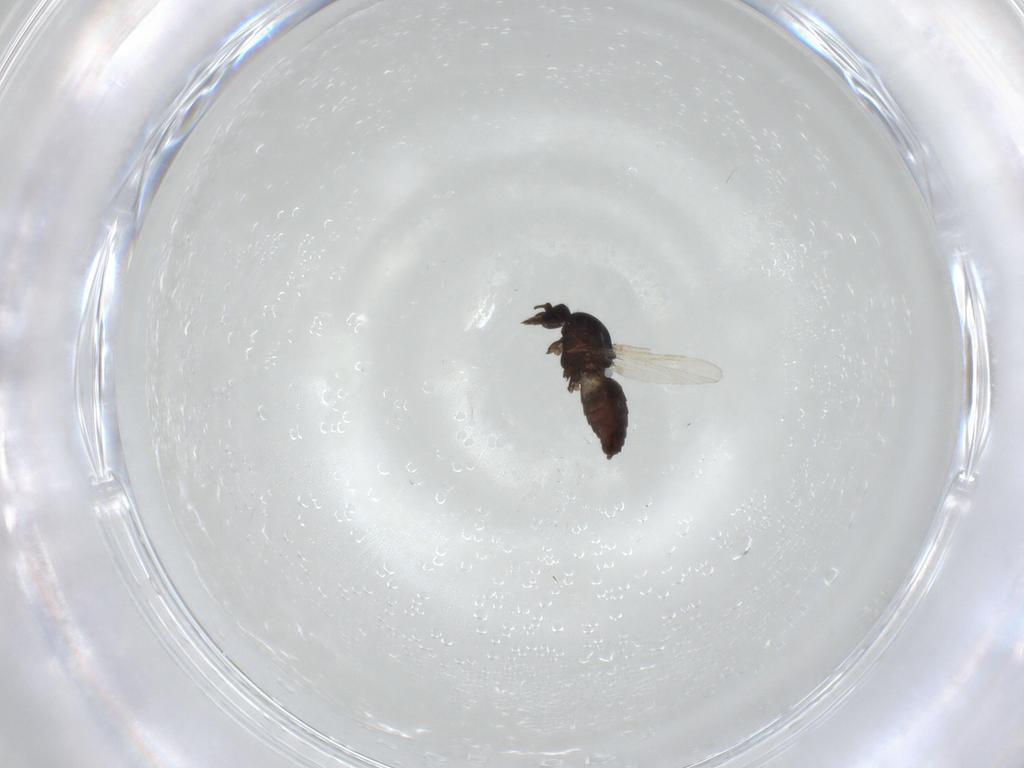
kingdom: Animalia
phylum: Arthropoda
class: Insecta
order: Diptera
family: Ceratopogonidae
